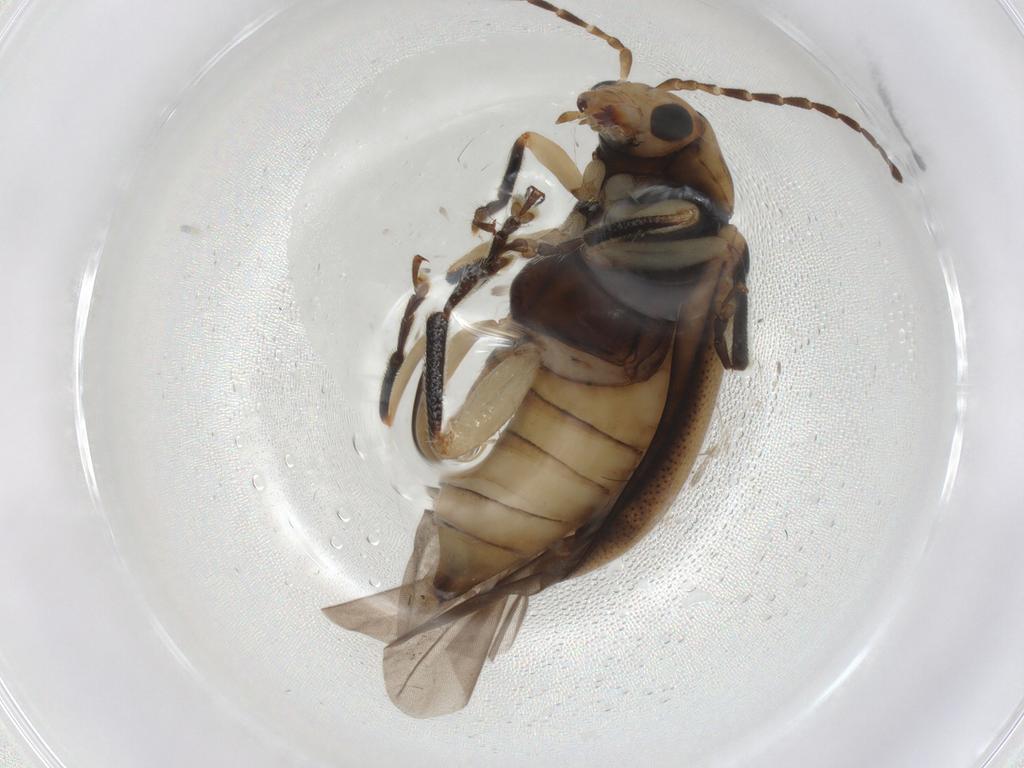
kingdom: Animalia
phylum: Arthropoda
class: Insecta
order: Coleoptera
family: Chrysomelidae
